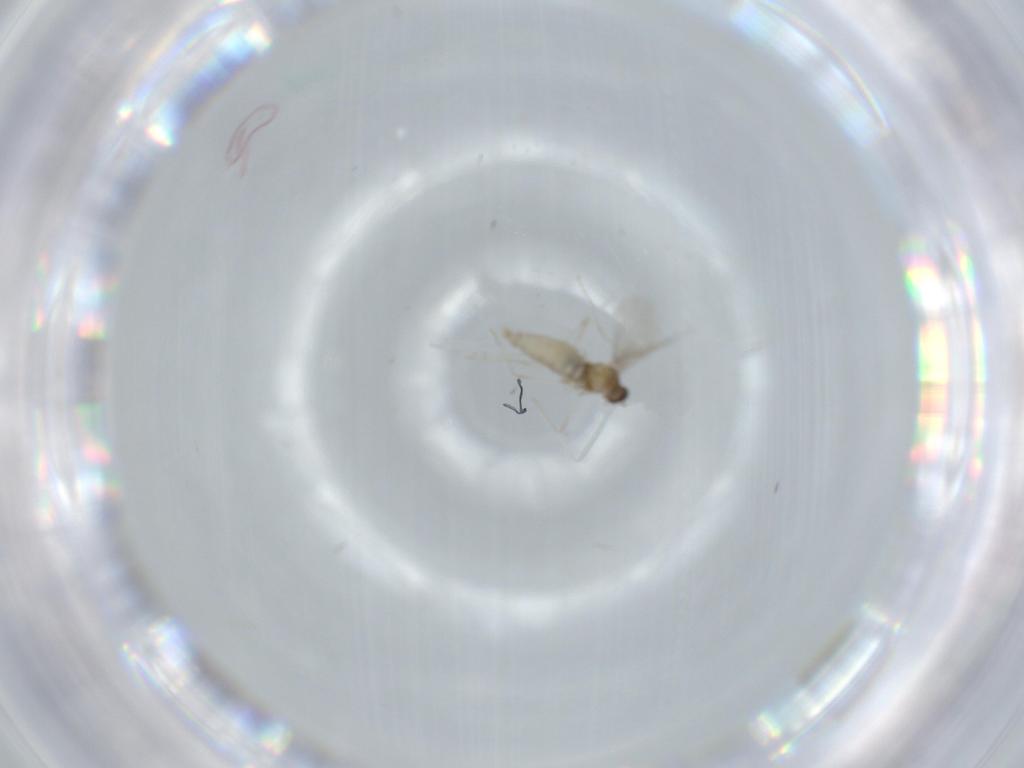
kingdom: Animalia
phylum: Arthropoda
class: Insecta
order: Diptera
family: Cecidomyiidae
